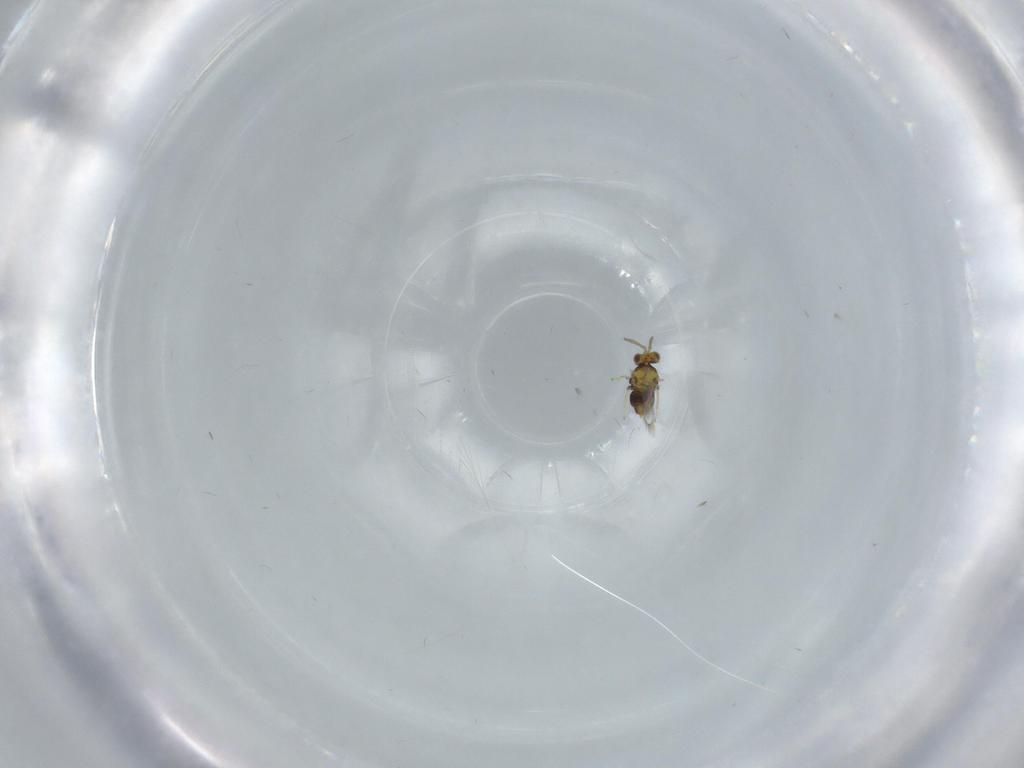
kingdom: Animalia
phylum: Arthropoda
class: Insecta
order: Hymenoptera
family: Aphelinidae
